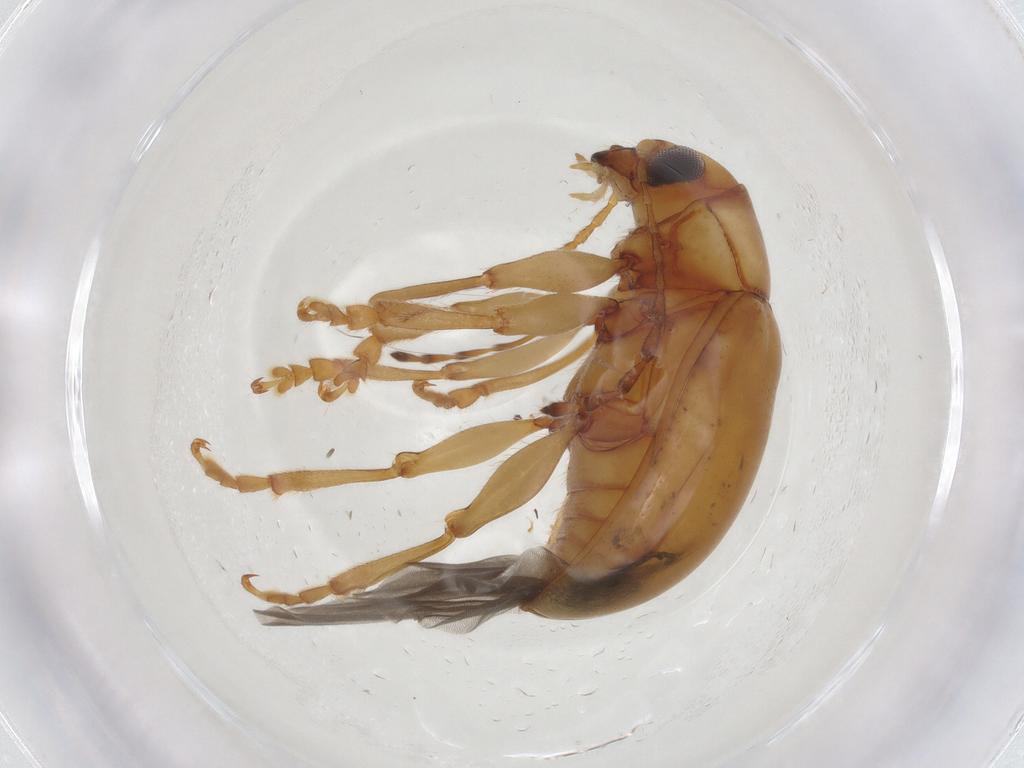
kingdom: Animalia
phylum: Arthropoda
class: Insecta
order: Coleoptera
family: Chrysomelidae
